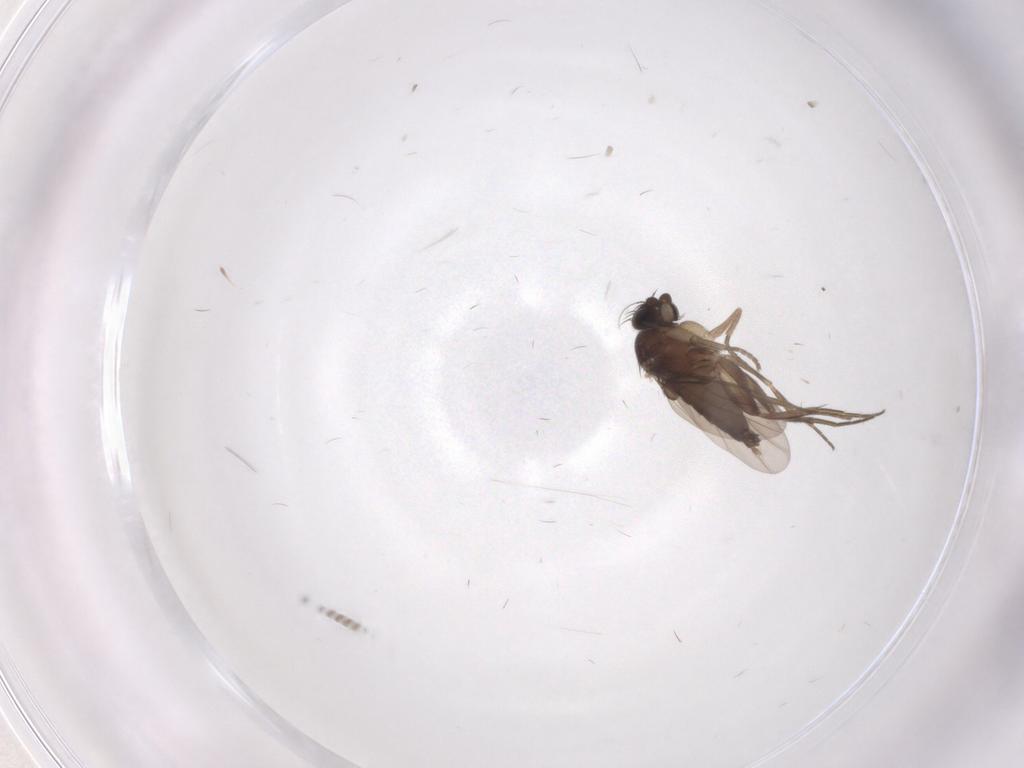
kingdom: Animalia
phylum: Arthropoda
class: Insecta
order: Diptera
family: Phoridae
